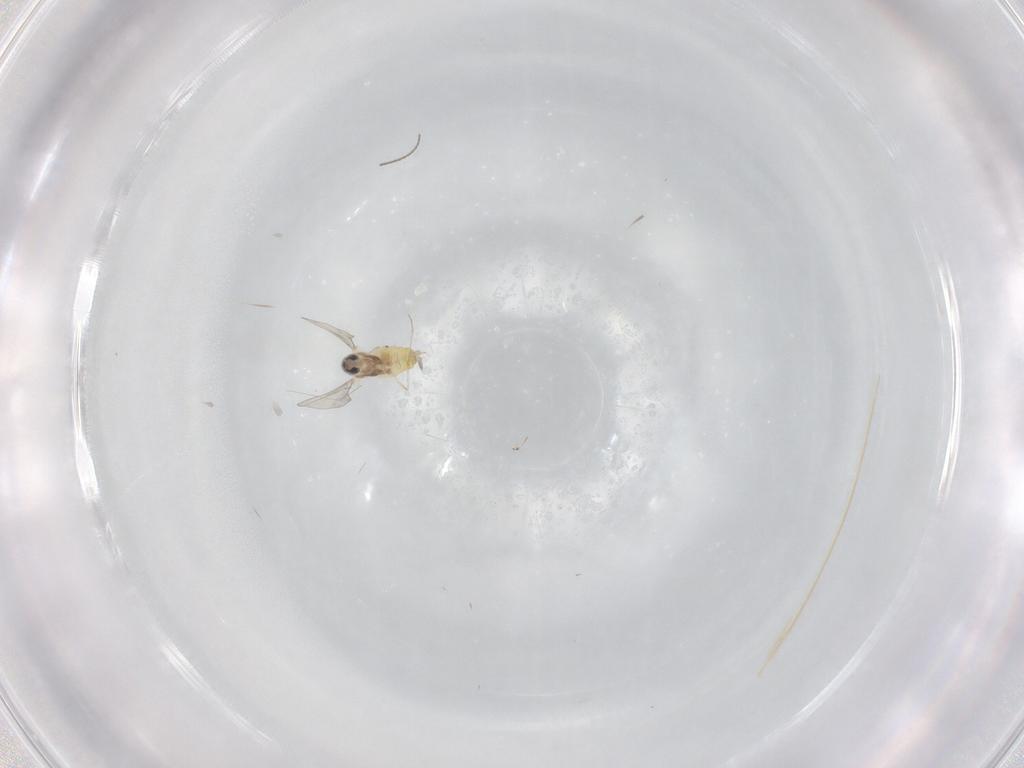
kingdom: Animalia
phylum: Arthropoda
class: Insecta
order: Diptera
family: Cecidomyiidae
